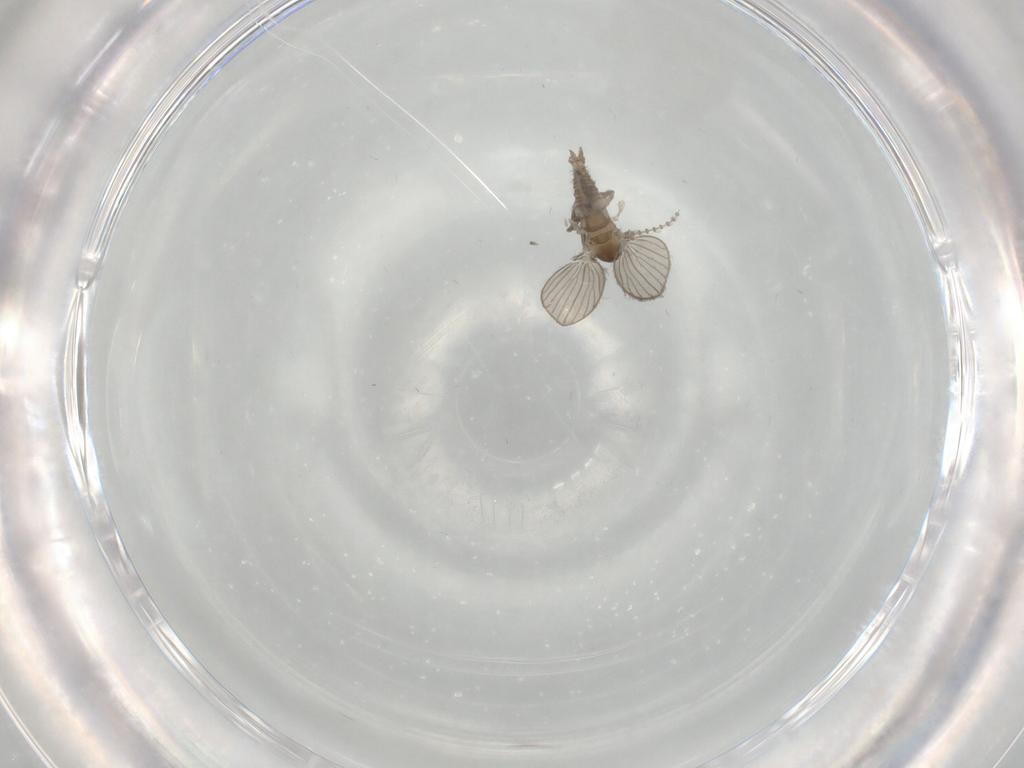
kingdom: Animalia
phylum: Arthropoda
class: Insecta
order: Diptera
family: Psychodidae
